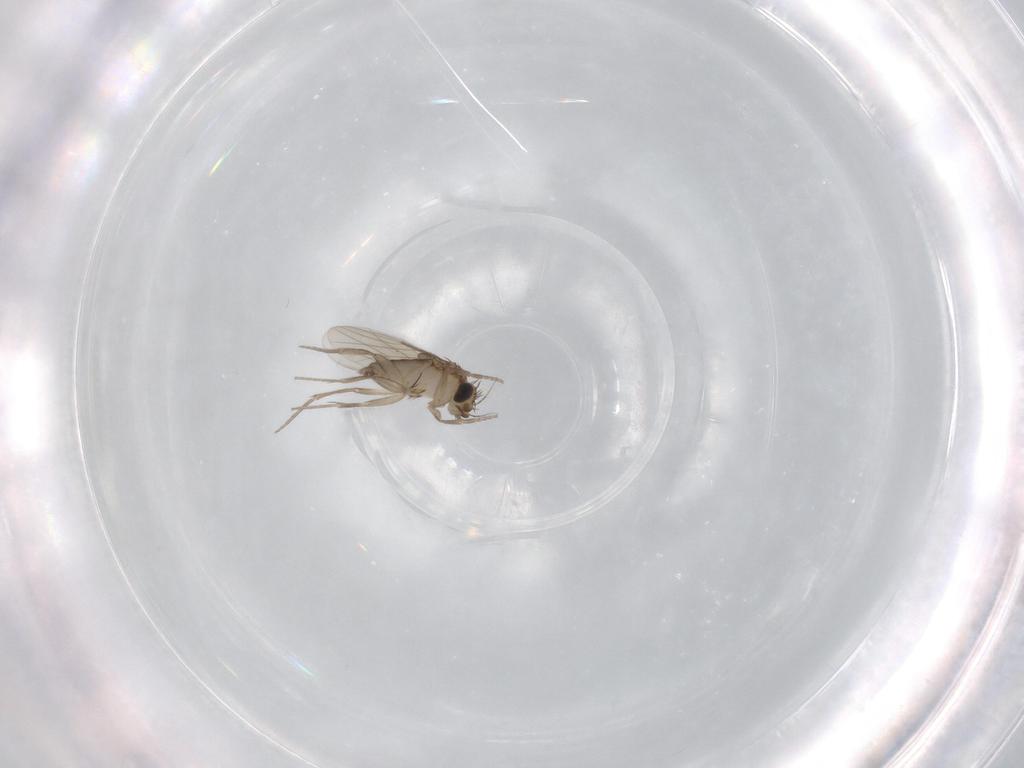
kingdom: Animalia
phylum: Arthropoda
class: Insecta
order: Diptera
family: Phoridae
